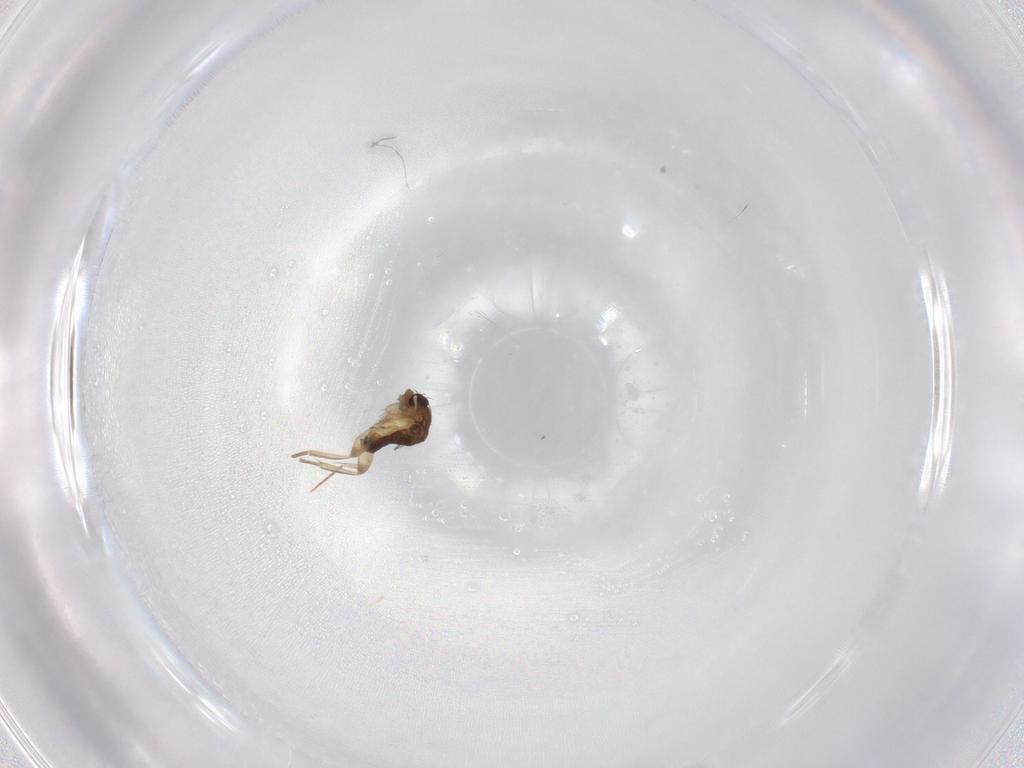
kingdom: Animalia
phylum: Arthropoda
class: Insecta
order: Diptera
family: Phoridae
